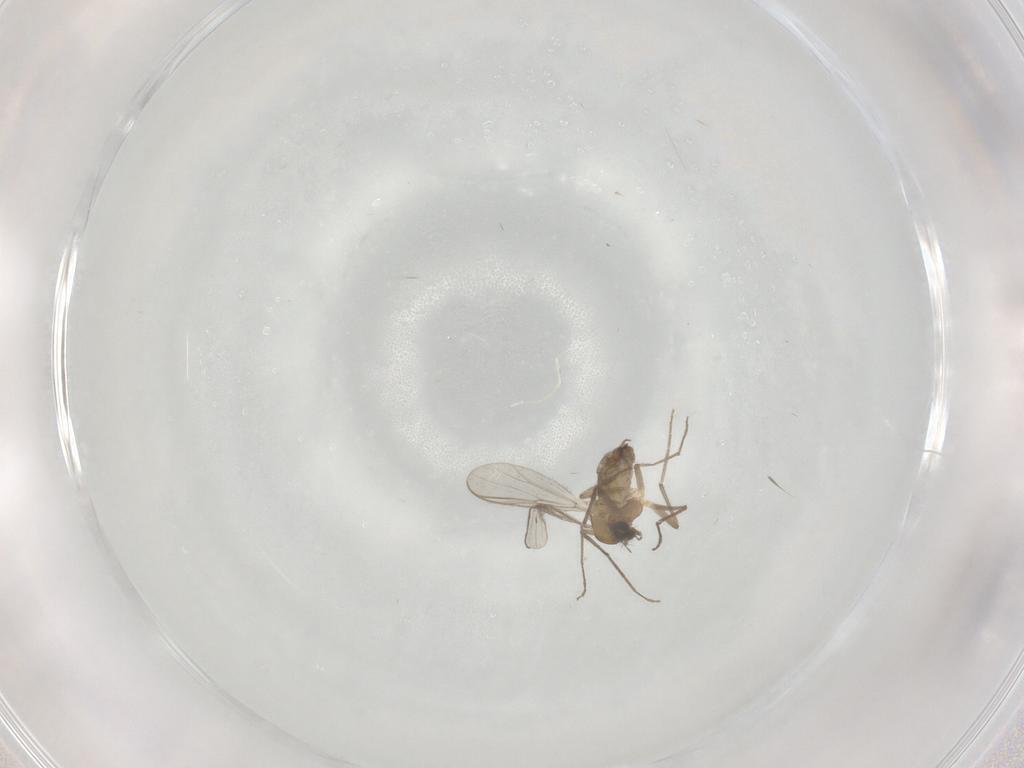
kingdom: Animalia
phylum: Arthropoda
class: Insecta
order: Diptera
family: Chironomidae
